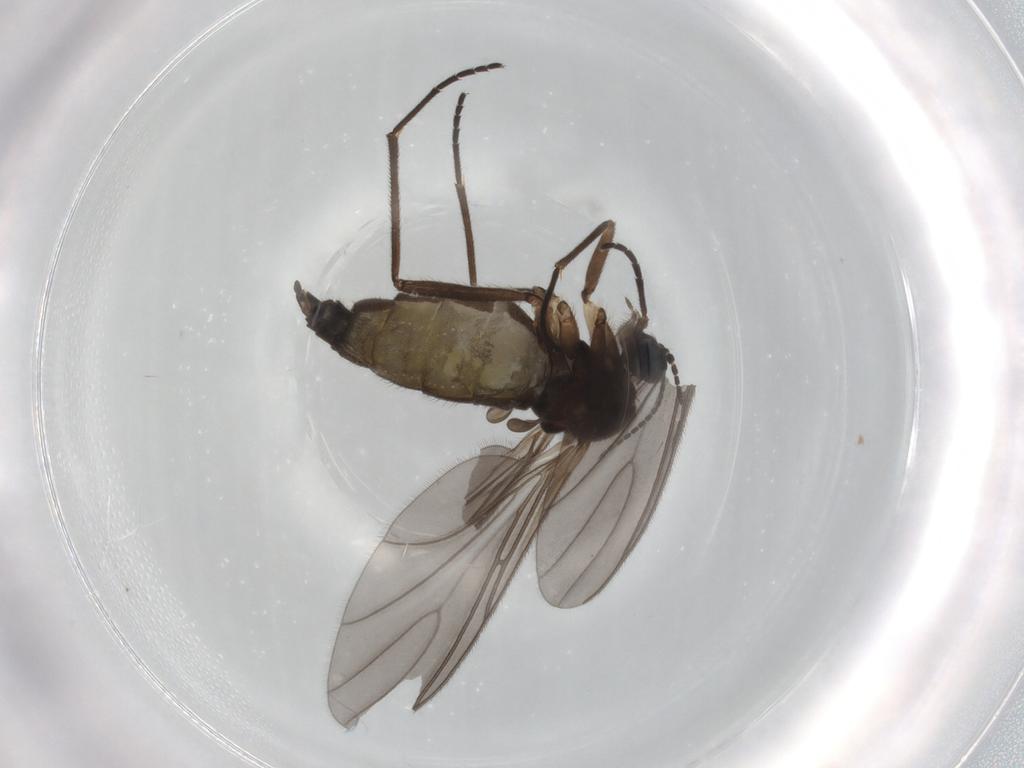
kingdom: Animalia
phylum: Arthropoda
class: Insecta
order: Diptera
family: Sciaridae
